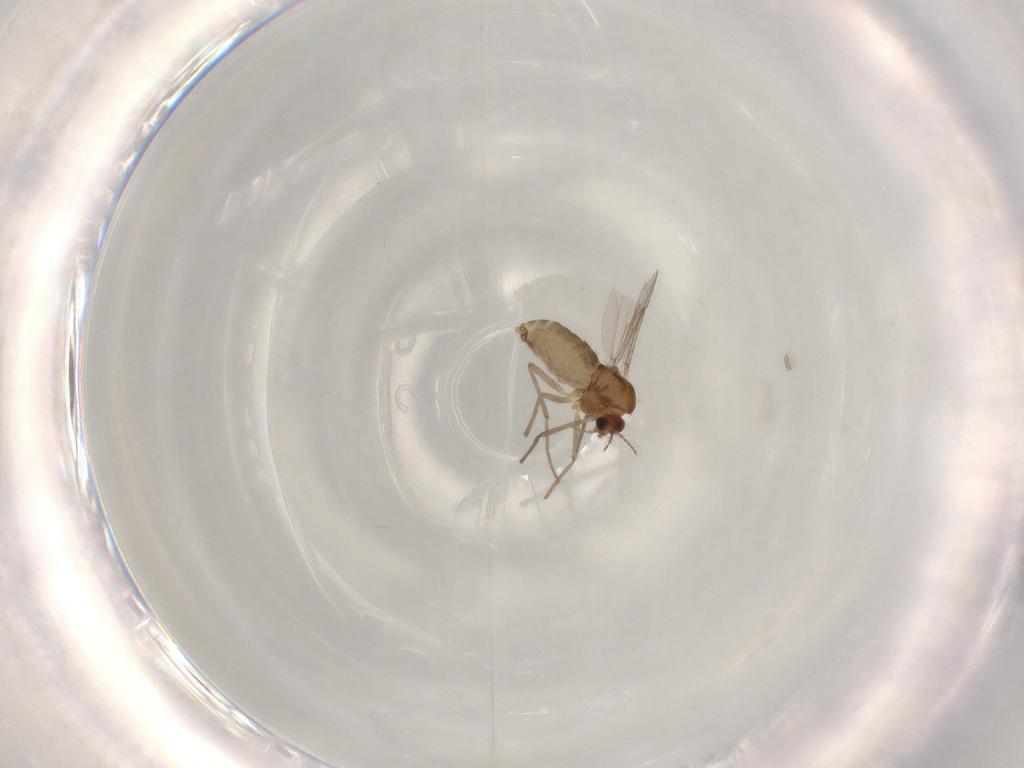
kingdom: Animalia
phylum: Arthropoda
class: Insecta
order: Diptera
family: Chironomidae
